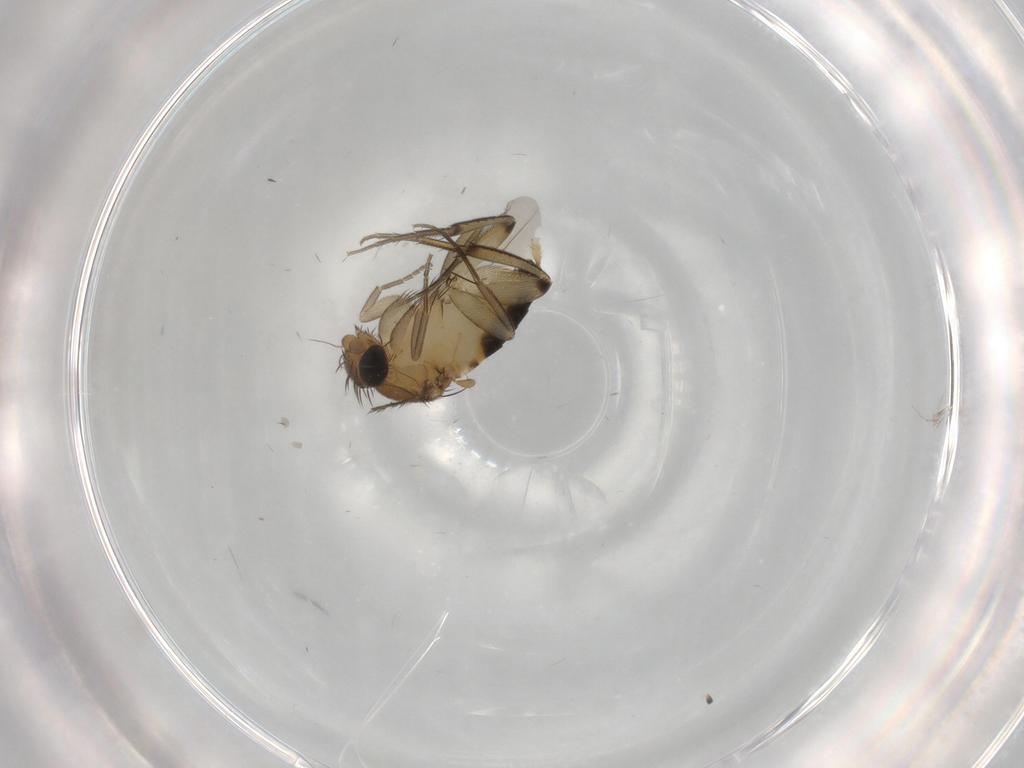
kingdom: Animalia
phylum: Arthropoda
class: Insecta
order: Diptera
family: Phoridae
